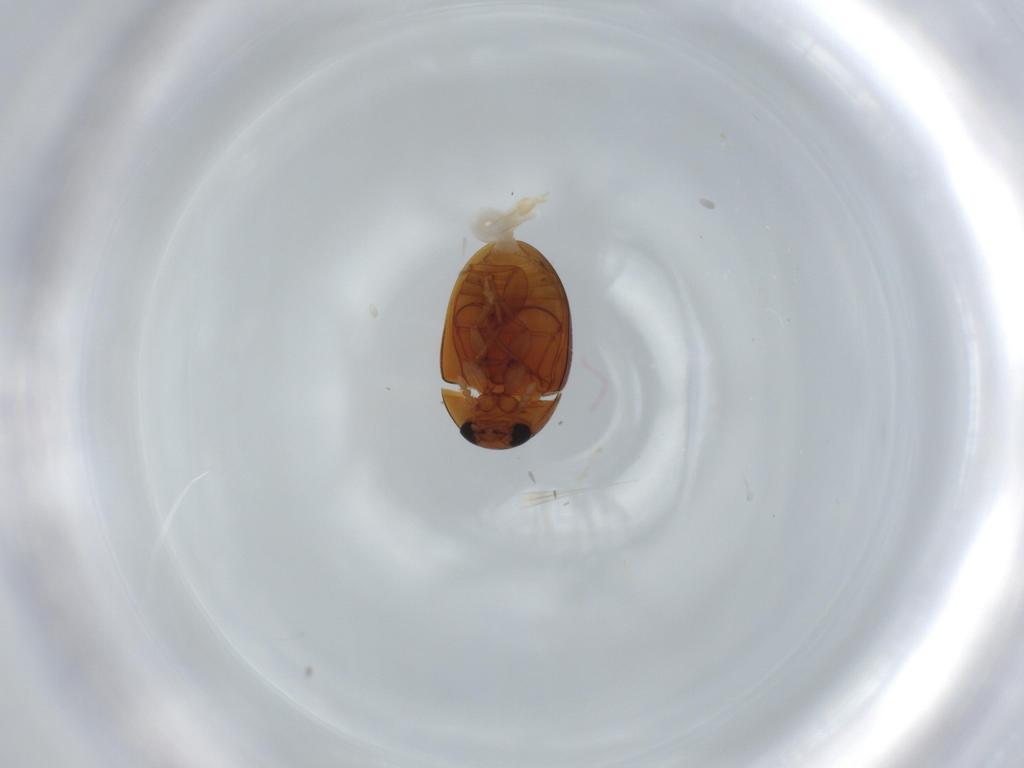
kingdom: Animalia
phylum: Arthropoda
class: Insecta
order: Coleoptera
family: Phalacridae
